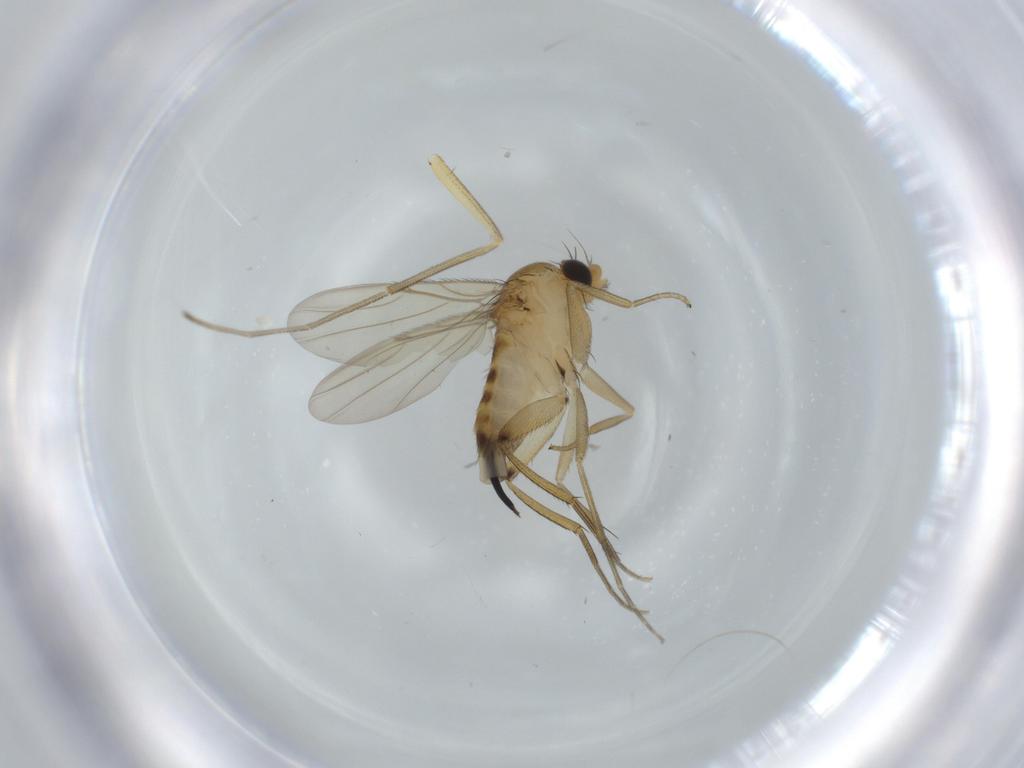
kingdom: Animalia
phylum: Arthropoda
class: Insecta
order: Diptera
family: Phoridae
